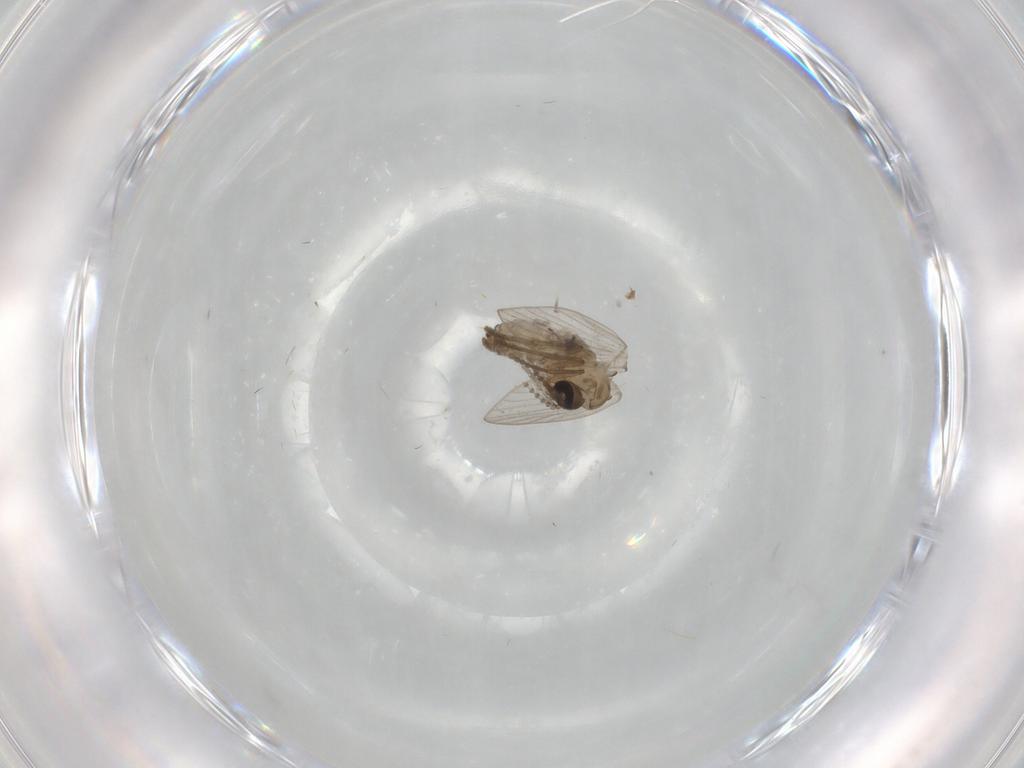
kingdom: Animalia
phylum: Arthropoda
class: Insecta
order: Diptera
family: Psychodidae
